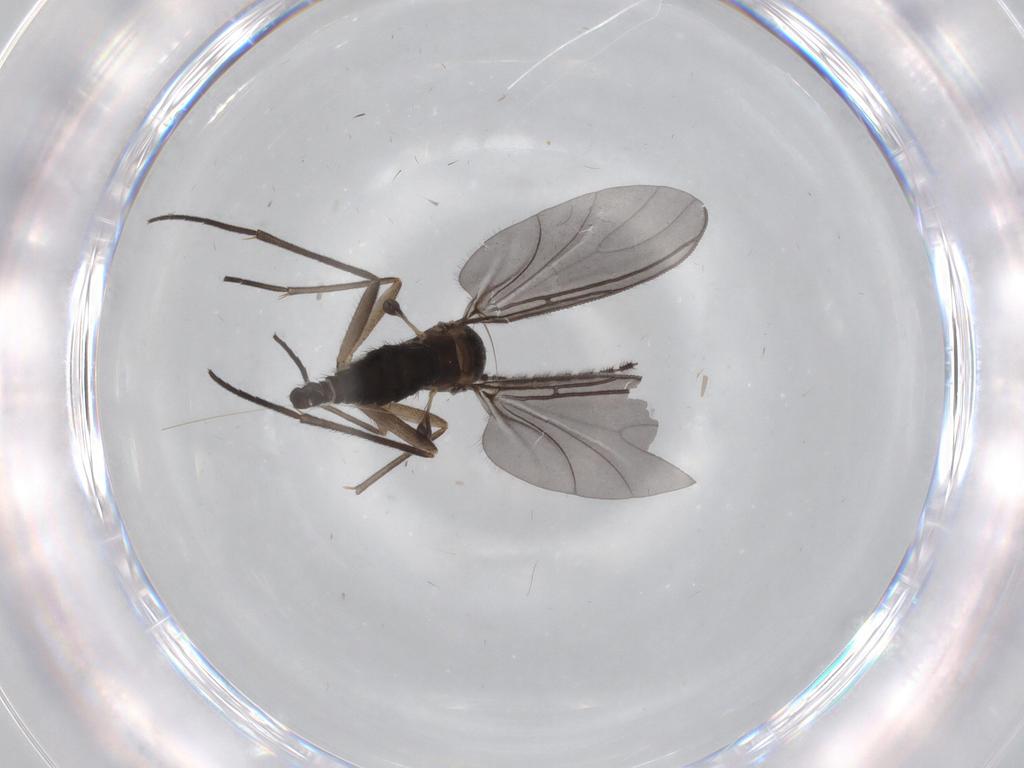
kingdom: Animalia
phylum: Arthropoda
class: Insecta
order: Diptera
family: Sciaridae
